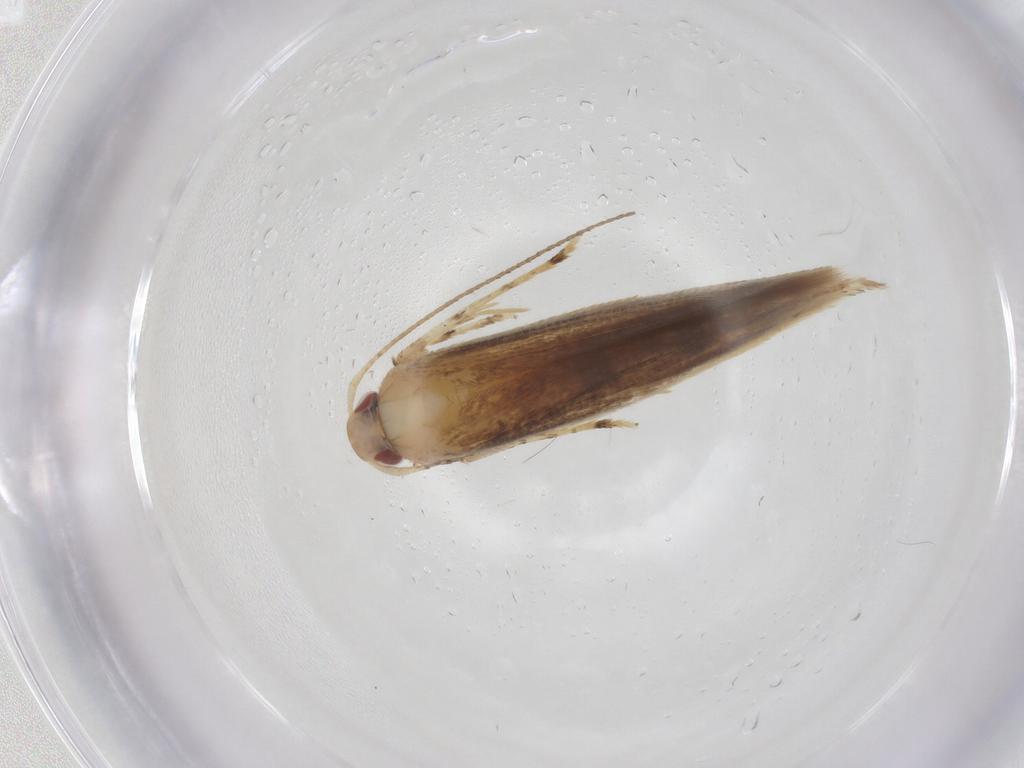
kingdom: Animalia
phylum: Arthropoda
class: Insecta
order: Lepidoptera
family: Cosmopterigidae
